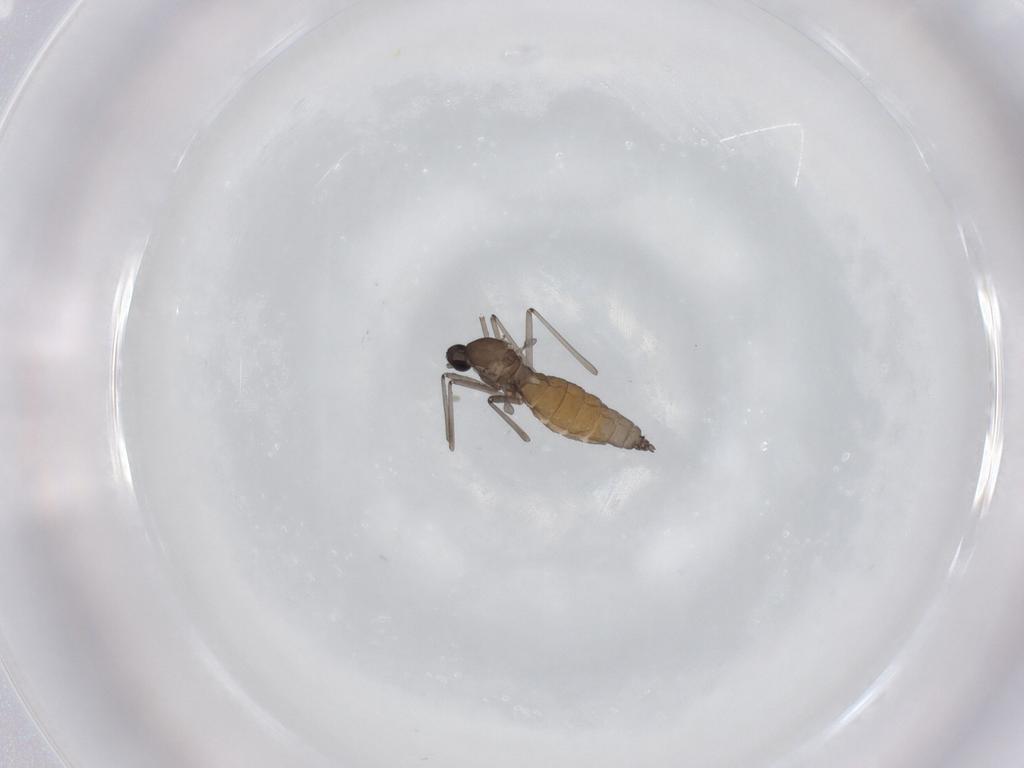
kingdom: Animalia
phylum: Arthropoda
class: Insecta
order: Diptera
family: Cecidomyiidae
